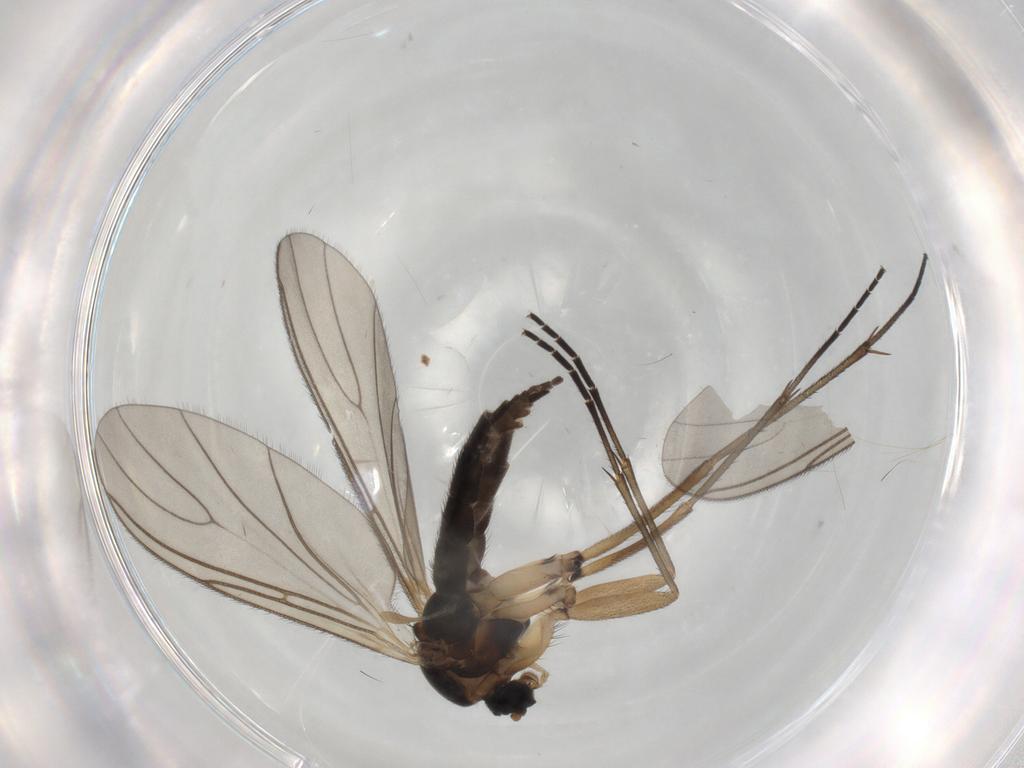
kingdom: Animalia
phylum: Arthropoda
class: Insecta
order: Diptera
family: Sciaridae
